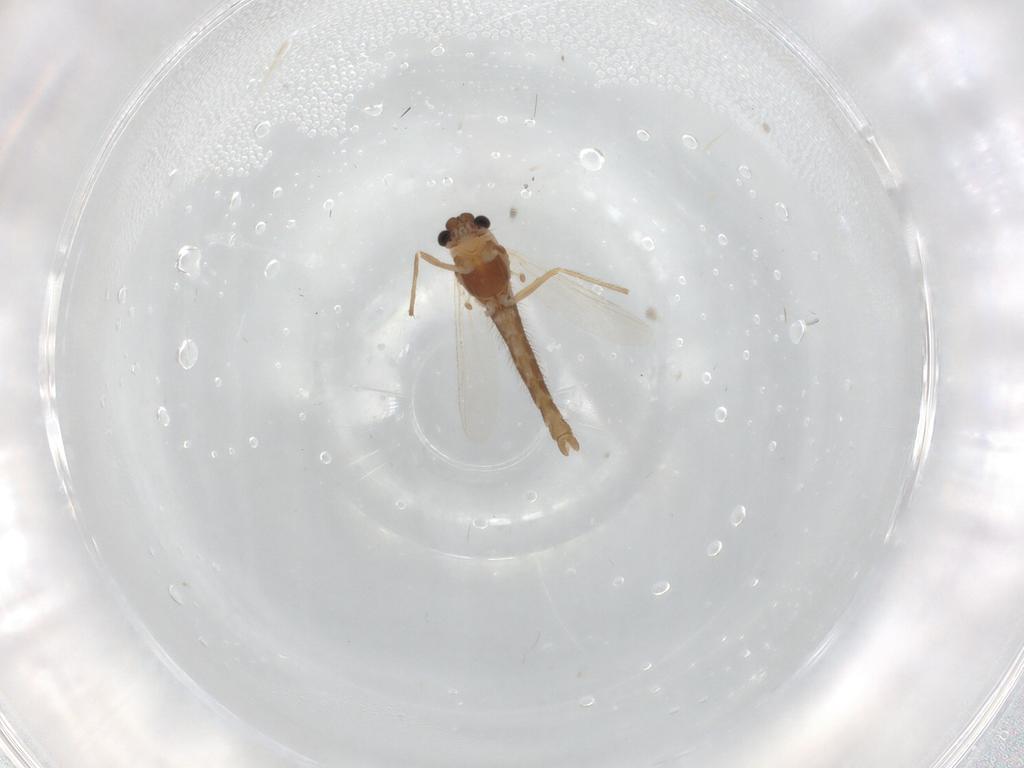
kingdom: Animalia
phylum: Arthropoda
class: Insecta
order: Diptera
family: Chironomidae
